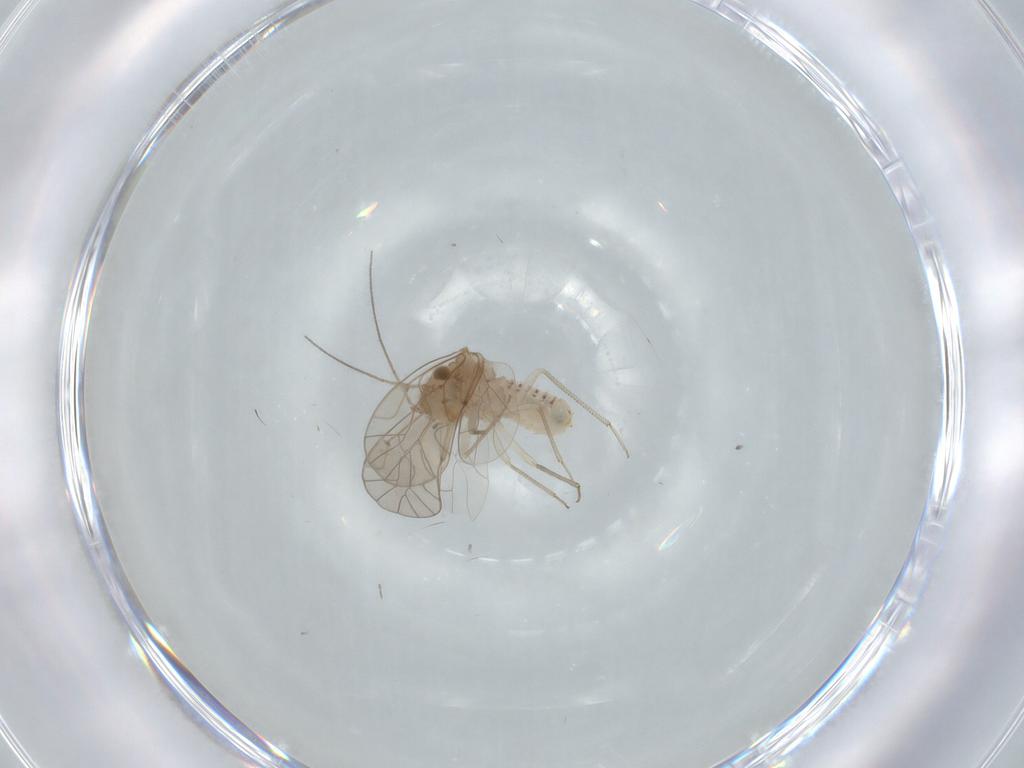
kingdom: Animalia
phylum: Arthropoda
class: Insecta
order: Psocodea
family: Lachesillidae
